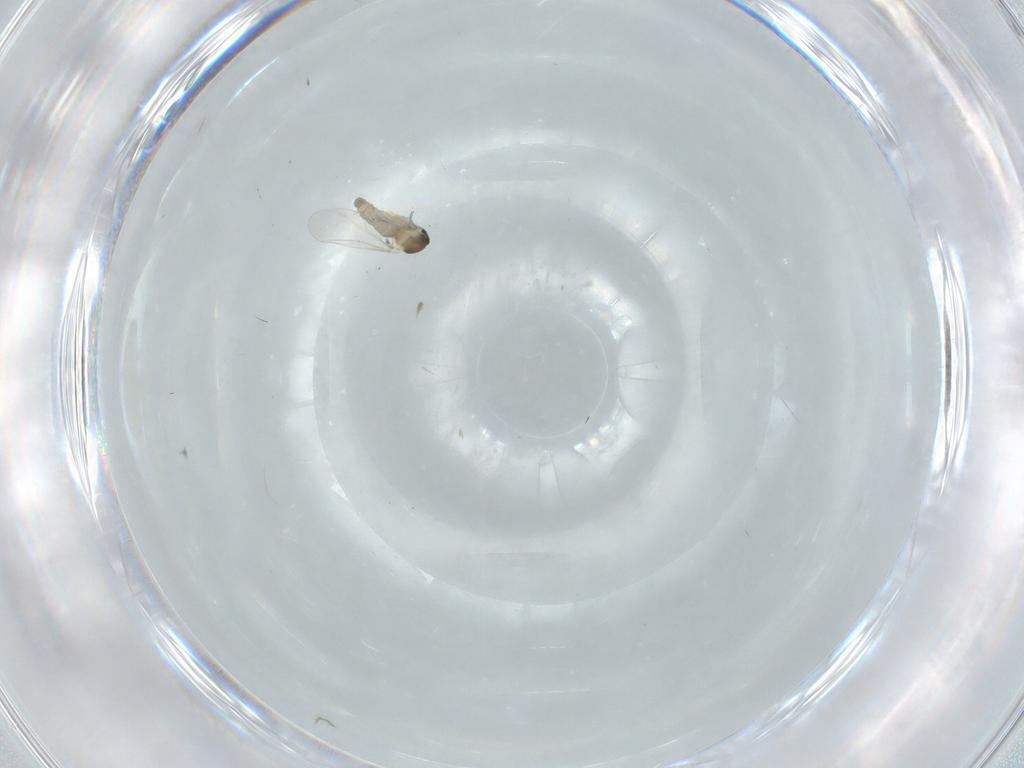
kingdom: Animalia
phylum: Arthropoda
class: Insecta
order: Diptera
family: Cecidomyiidae
